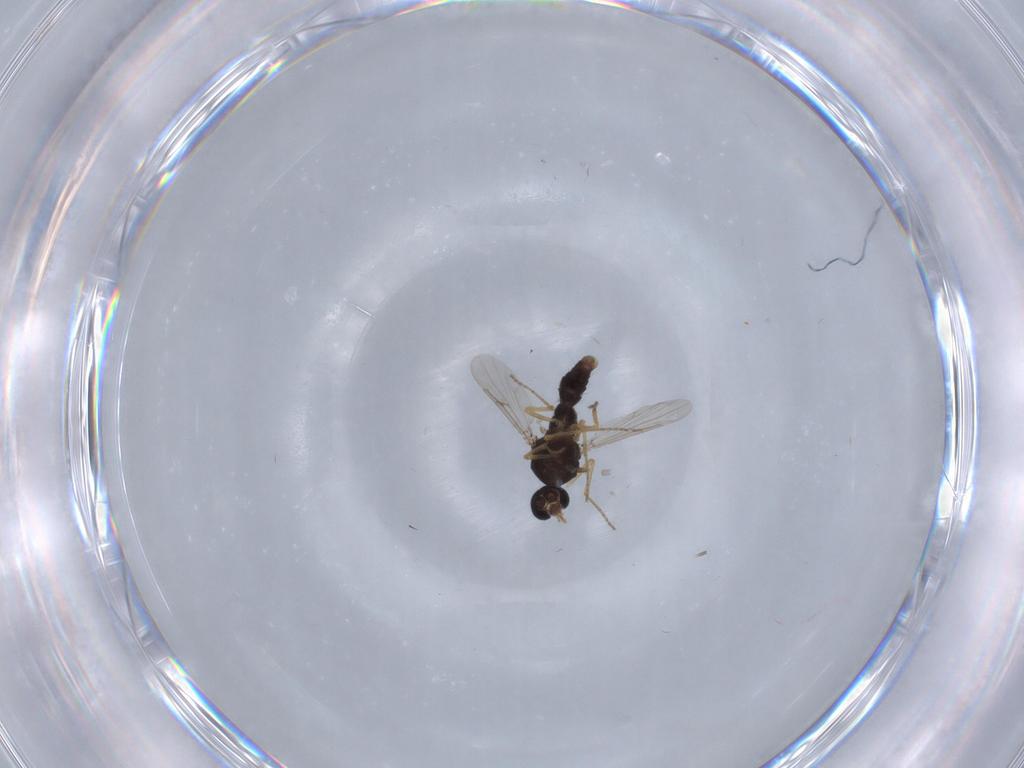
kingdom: Animalia
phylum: Arthropoda
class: Insecta
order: Diptera
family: Ceratopogonidae
